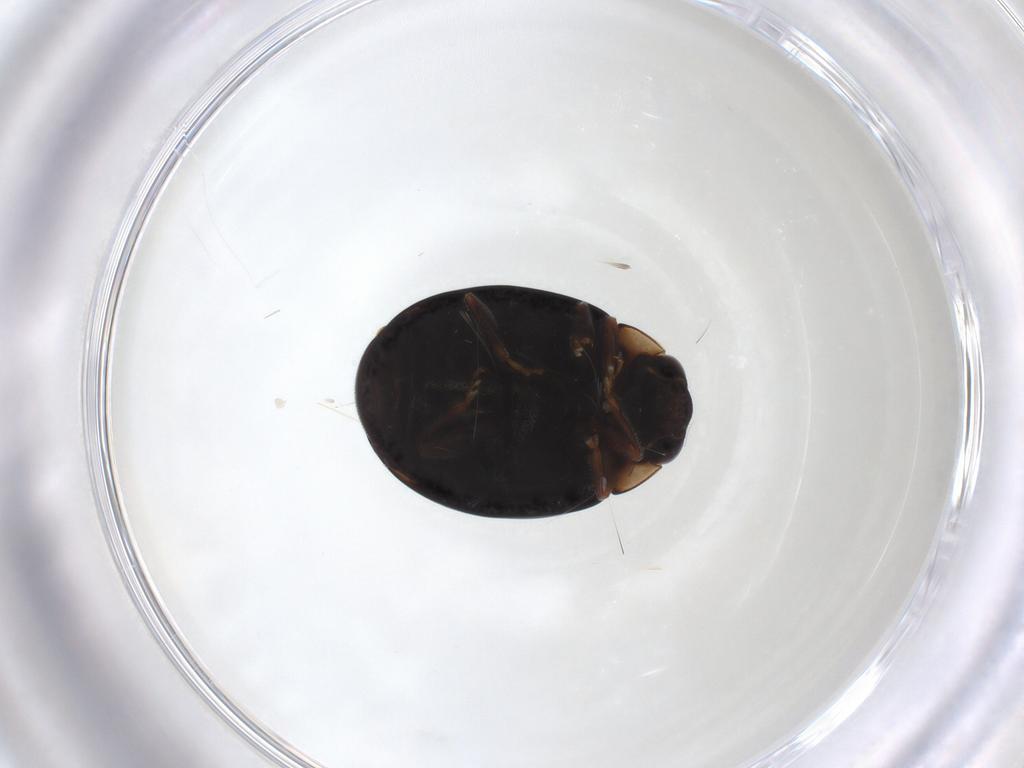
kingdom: Animalia
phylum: Arthropoda
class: Insecta
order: Coleoptera
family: Coccinellidae
